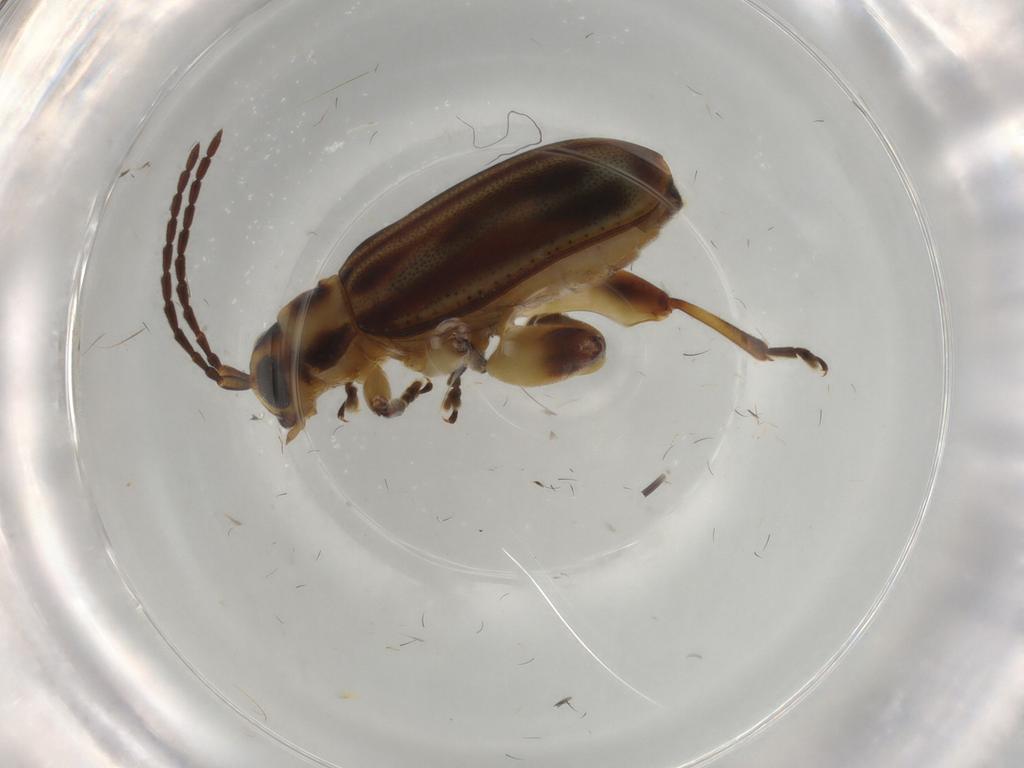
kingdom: Animalia
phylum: Arthropoda
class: Insecta
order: Coleoptera
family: Chrysomelidae
